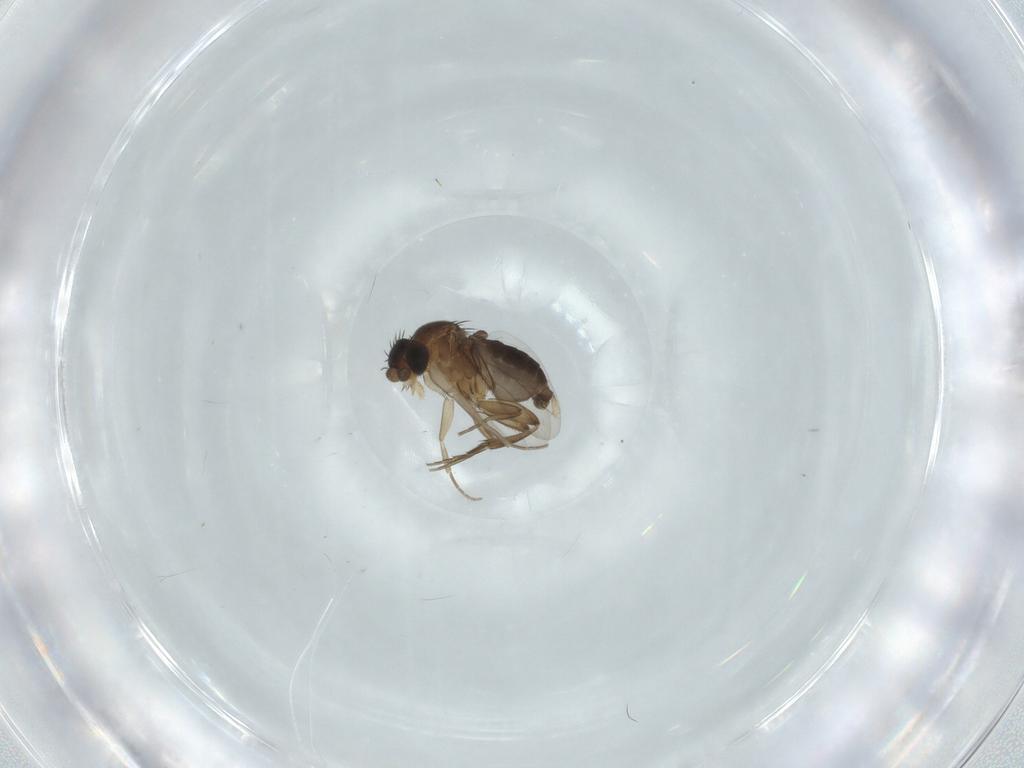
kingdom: Animalia
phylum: Arthropoda
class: Insecta
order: Diptera
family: Phoridae
